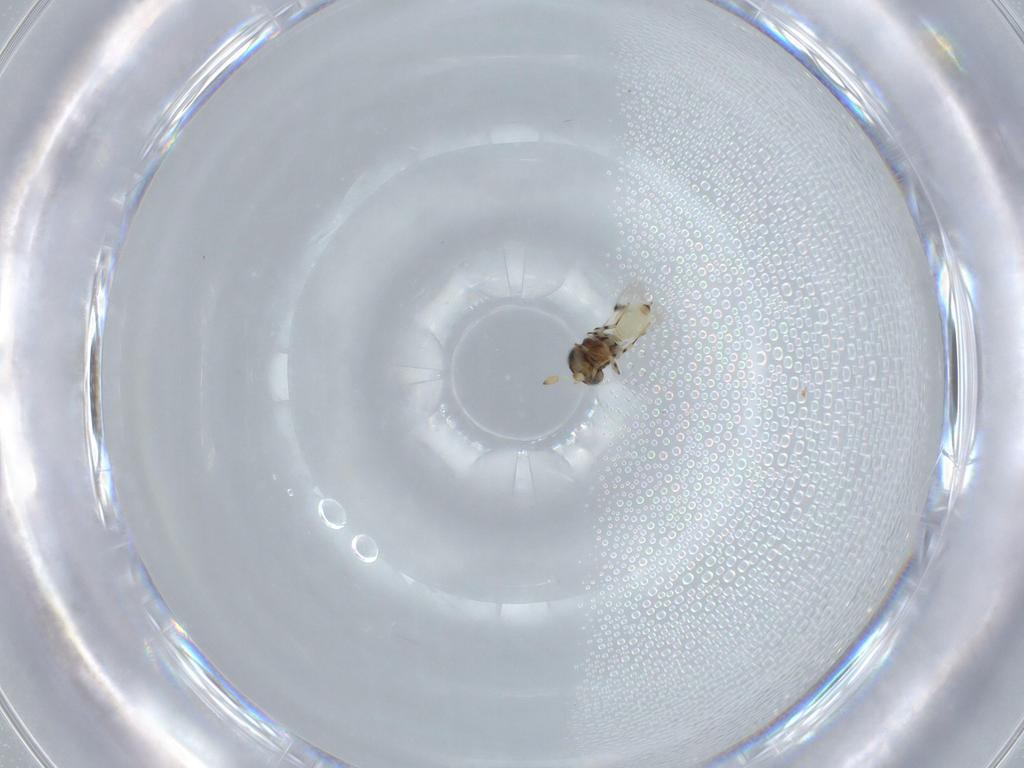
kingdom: Animalia
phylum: Arthropoda
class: Insecta
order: Hymenoptera
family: Scelionidae
